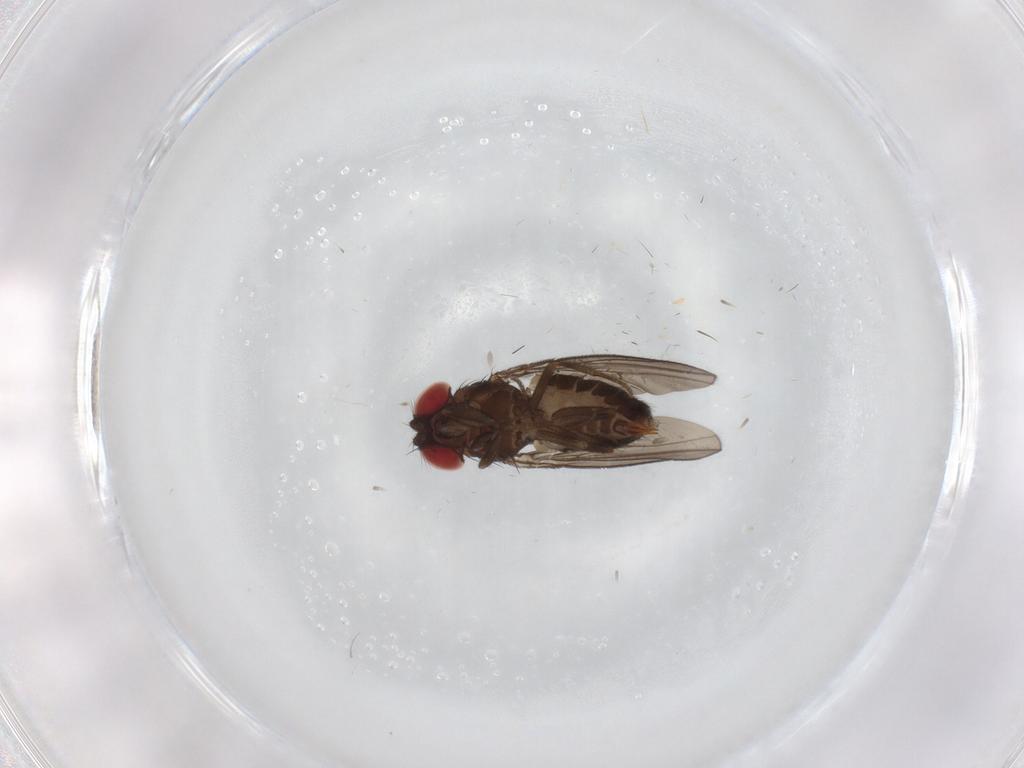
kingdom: Animalia
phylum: Arthropoda
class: Insecta
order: Diptera
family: Drosophilidae
